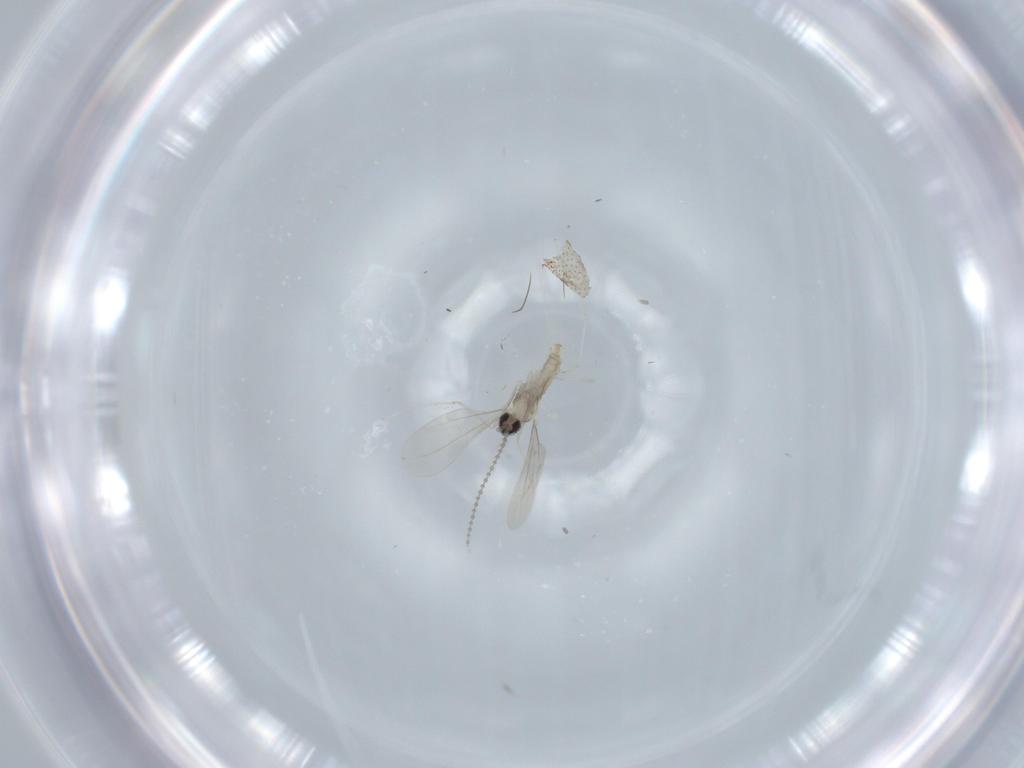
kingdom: Animalia
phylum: Arthropoda
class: Insecta
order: Diptera
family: Cecidomyiidae
